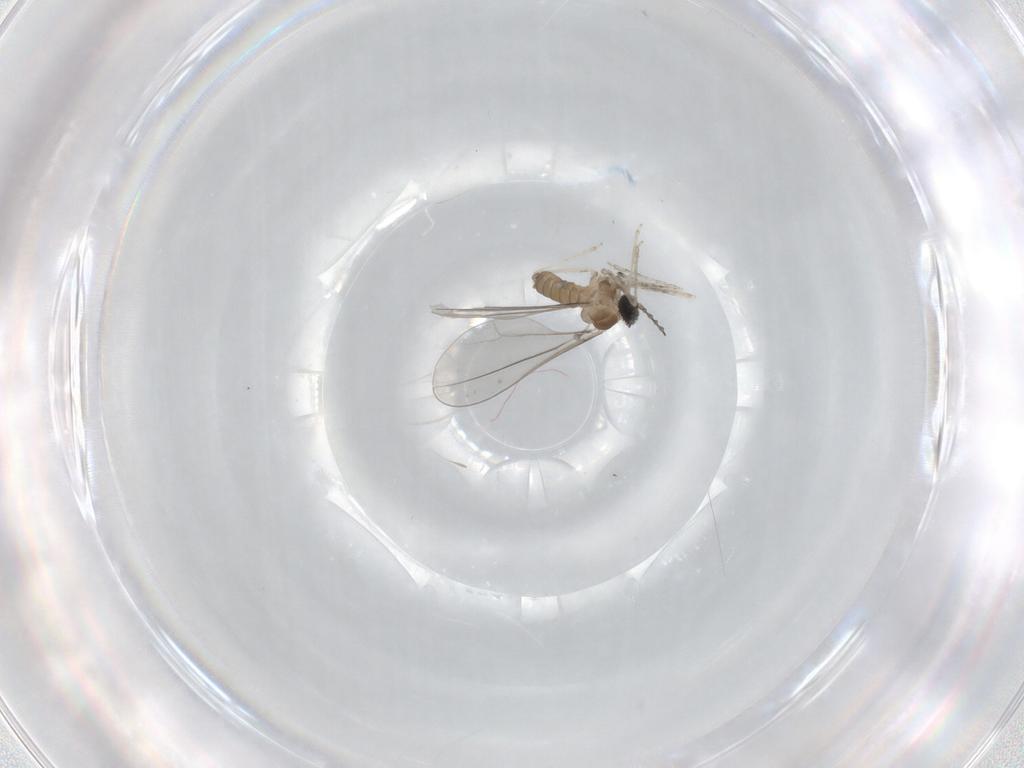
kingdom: Animalia
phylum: Arthropoda
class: Insecta
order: Diptera
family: Cecidomyiidae
